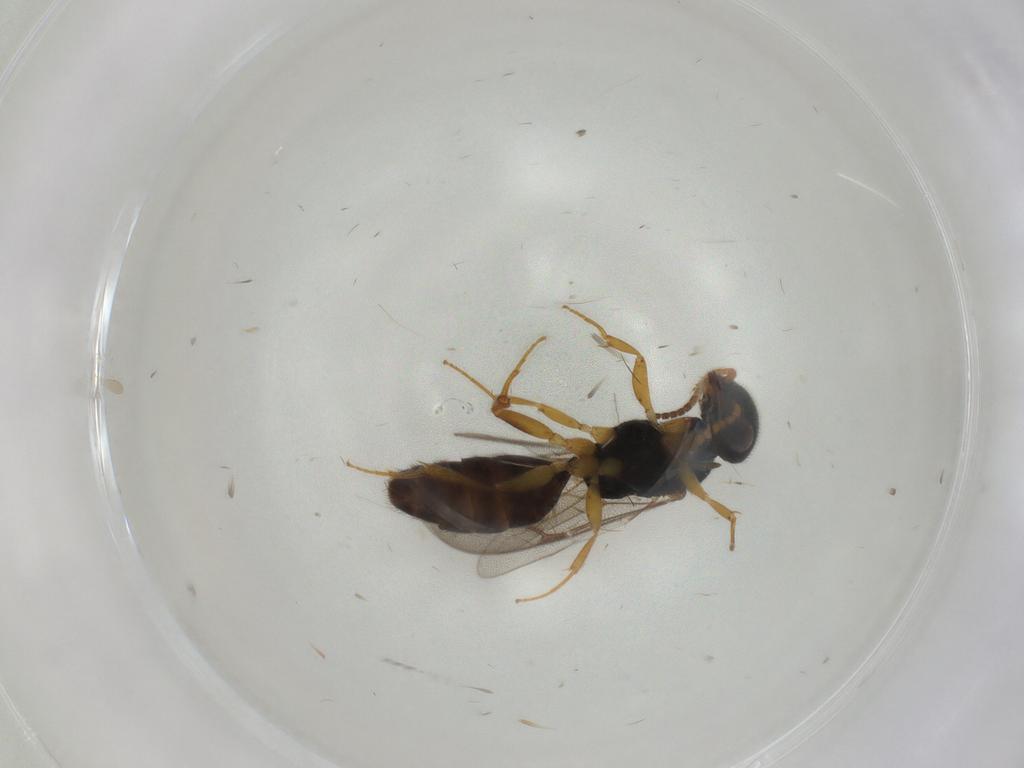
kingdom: Animalia
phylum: Arthropoda
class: Insecta
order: Hymenoptera
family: Bethylidae
